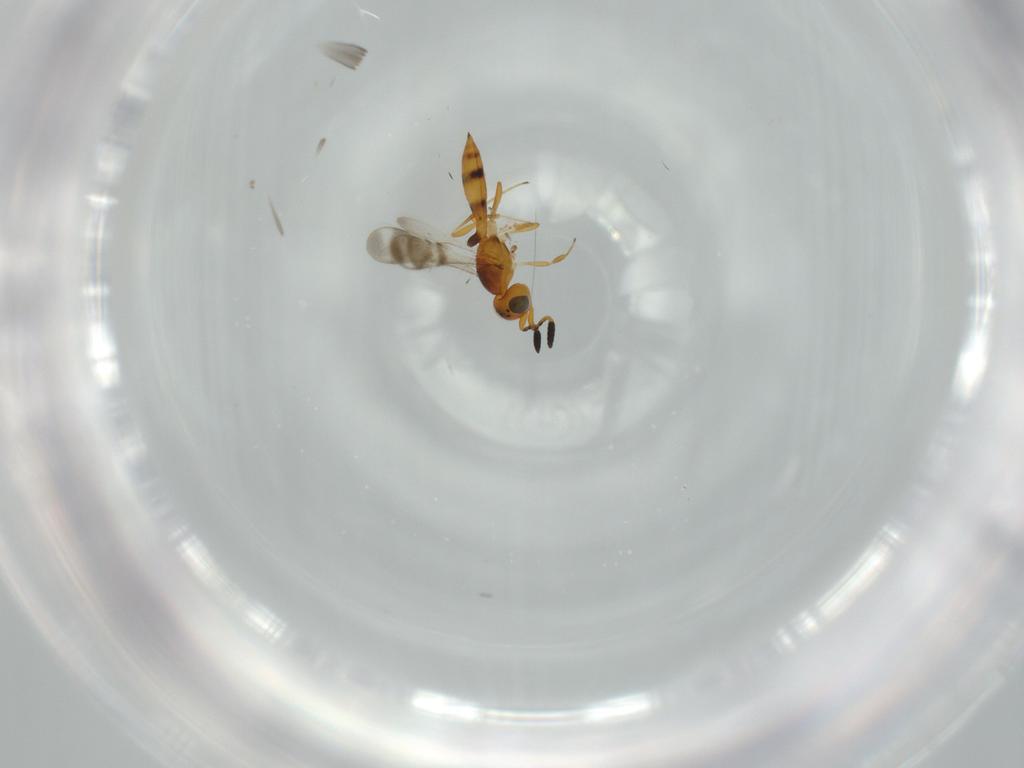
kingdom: Animalia
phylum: Arthropoda
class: Insecta
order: Hymenoptera
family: Scelionidae
